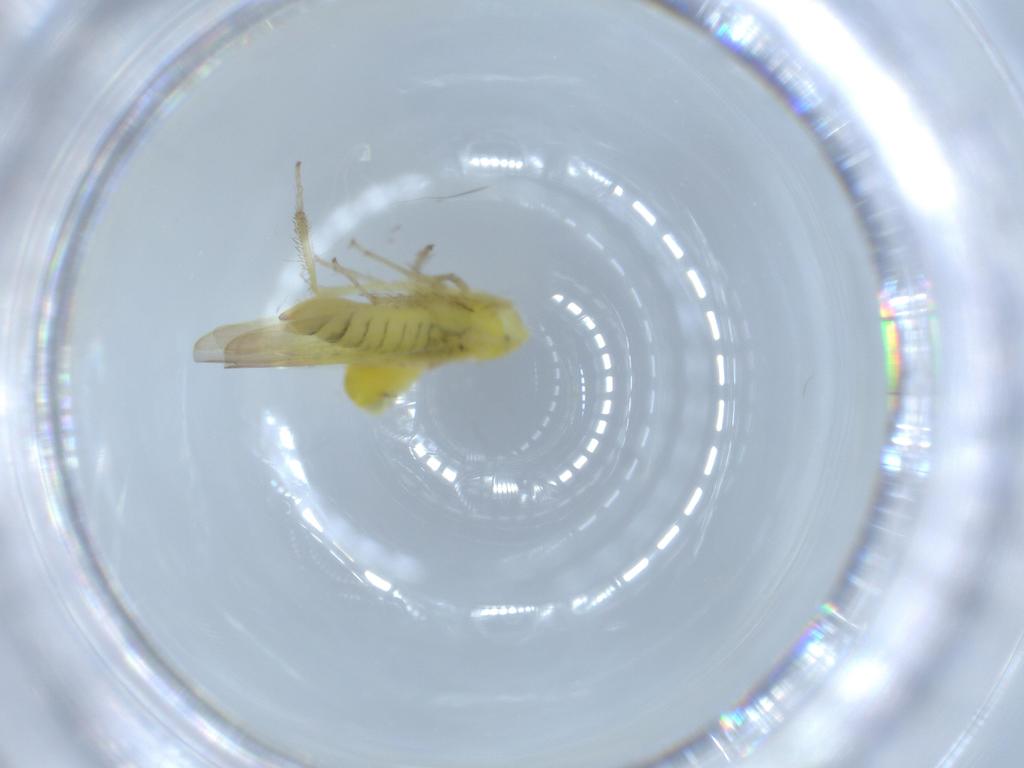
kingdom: Animalia
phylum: Arthropoda
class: Insecta
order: Hemiptera
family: Cicadellidae
